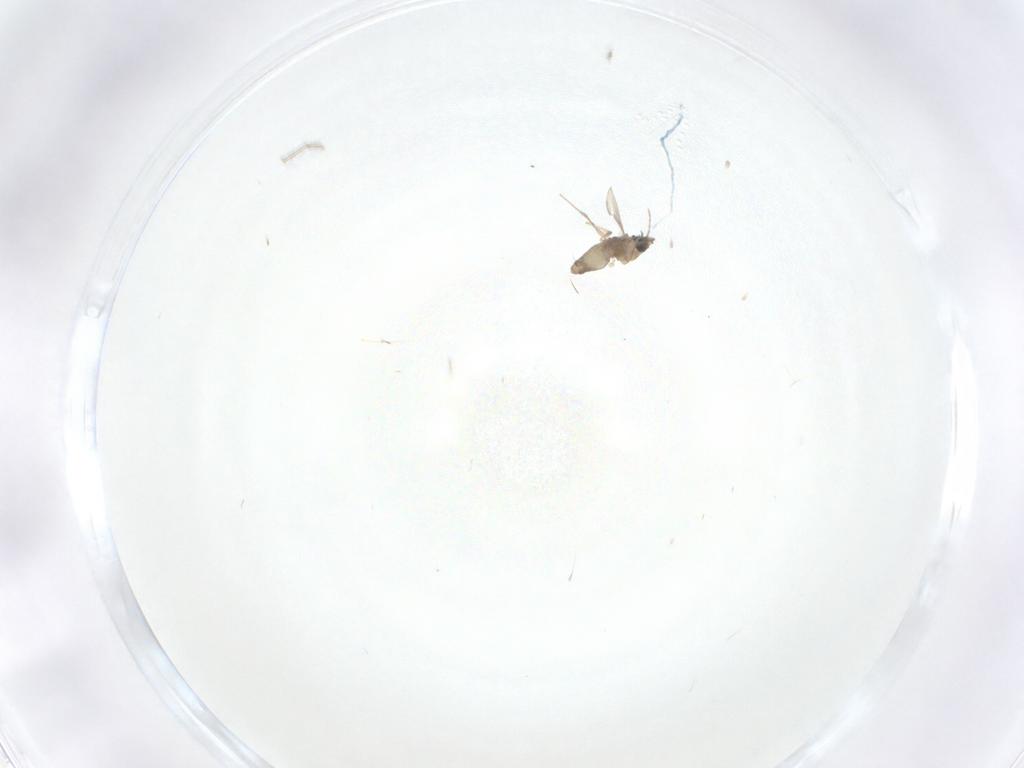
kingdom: Animalia
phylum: Arthropoda
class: Insecta
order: Diptera
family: Chironomidae
